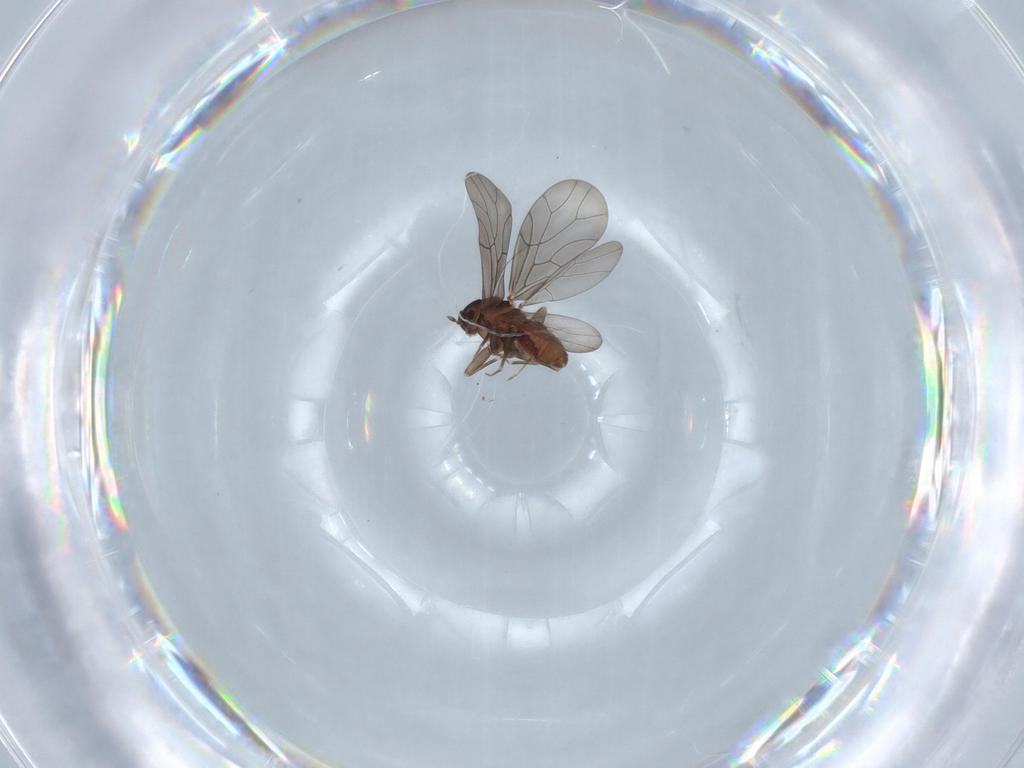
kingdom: Animalia
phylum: Arthropoda
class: Insecta
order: Psocodea
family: Lepidopsocidae
